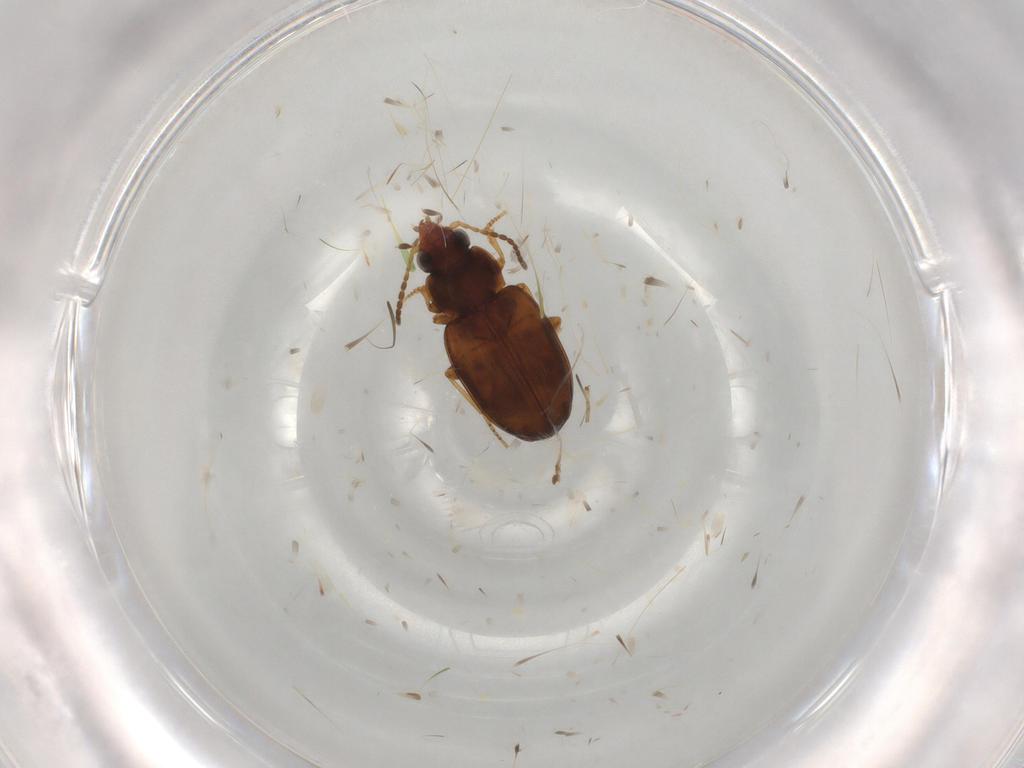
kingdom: Animalia
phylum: Arthropoda
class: Insecta
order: Coleoptera
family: Carabidae
